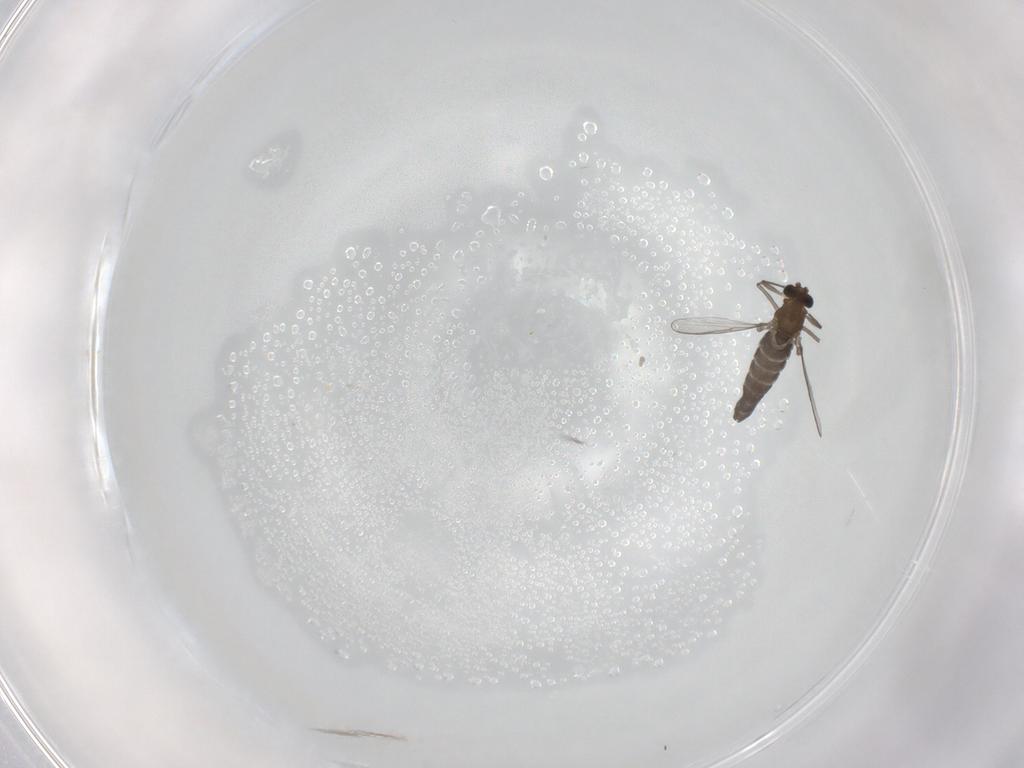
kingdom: Animalia
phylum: Arthropoda
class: Insecta
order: Diptera
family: Chironomidae
